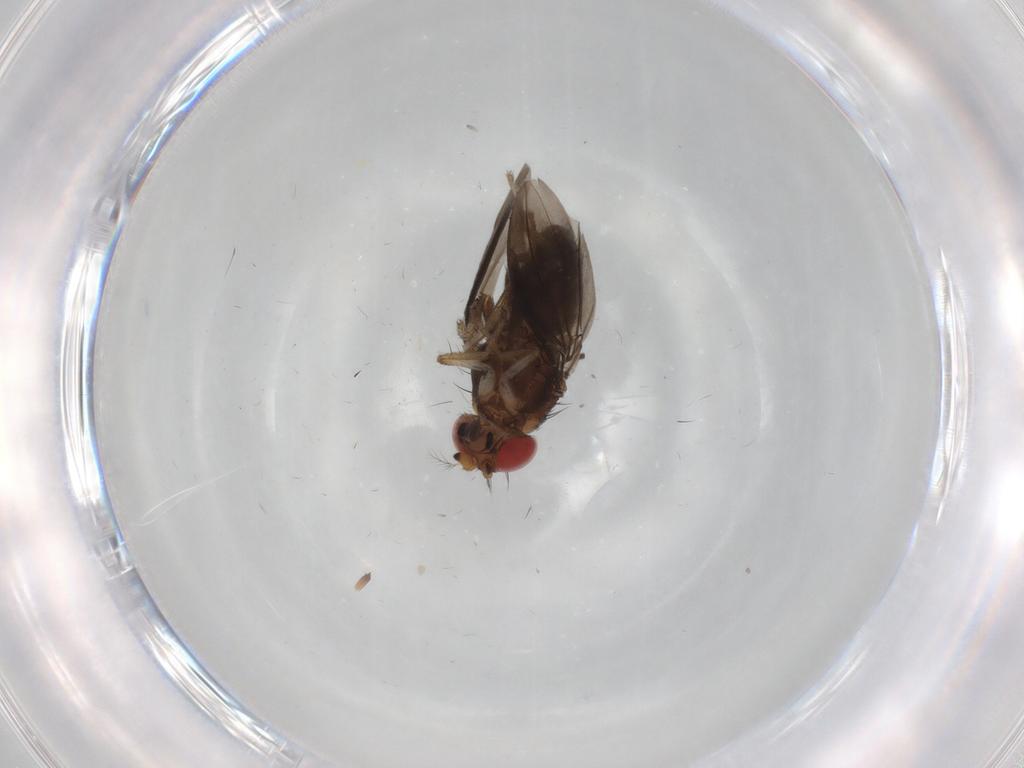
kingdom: Animalia
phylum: Arthropoda
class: Insecta
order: Diptera
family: Drosophilidae
